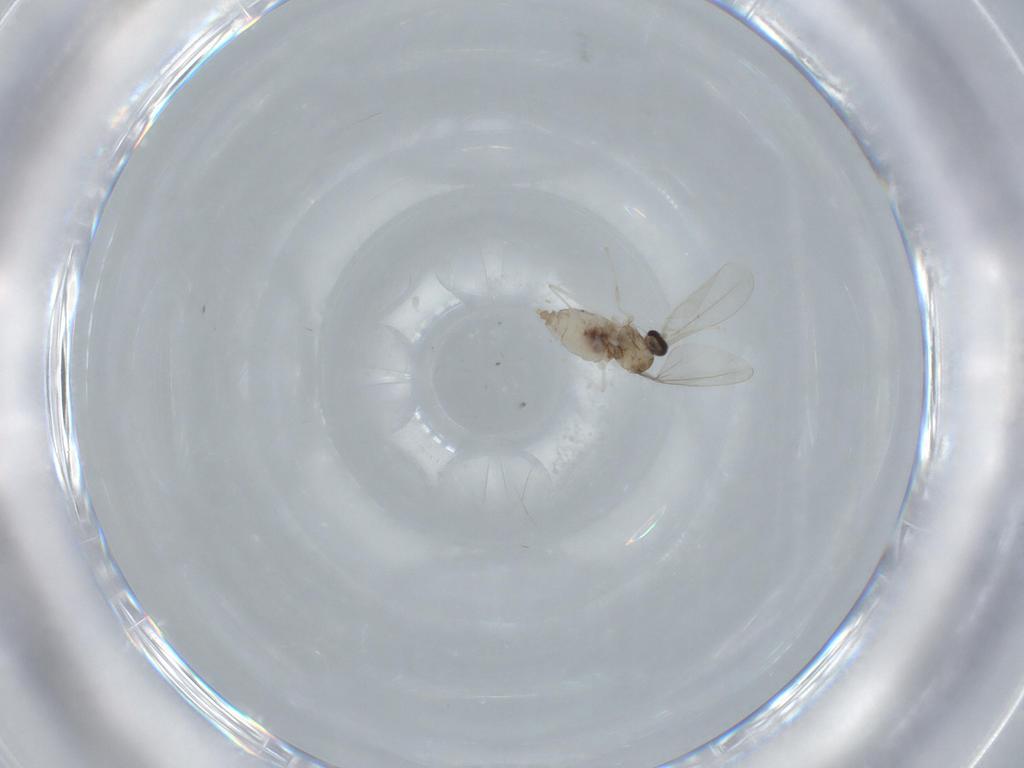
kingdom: Animalia
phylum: Arthropoda
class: Insecta
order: Diptera
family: Cecidomyiidae
